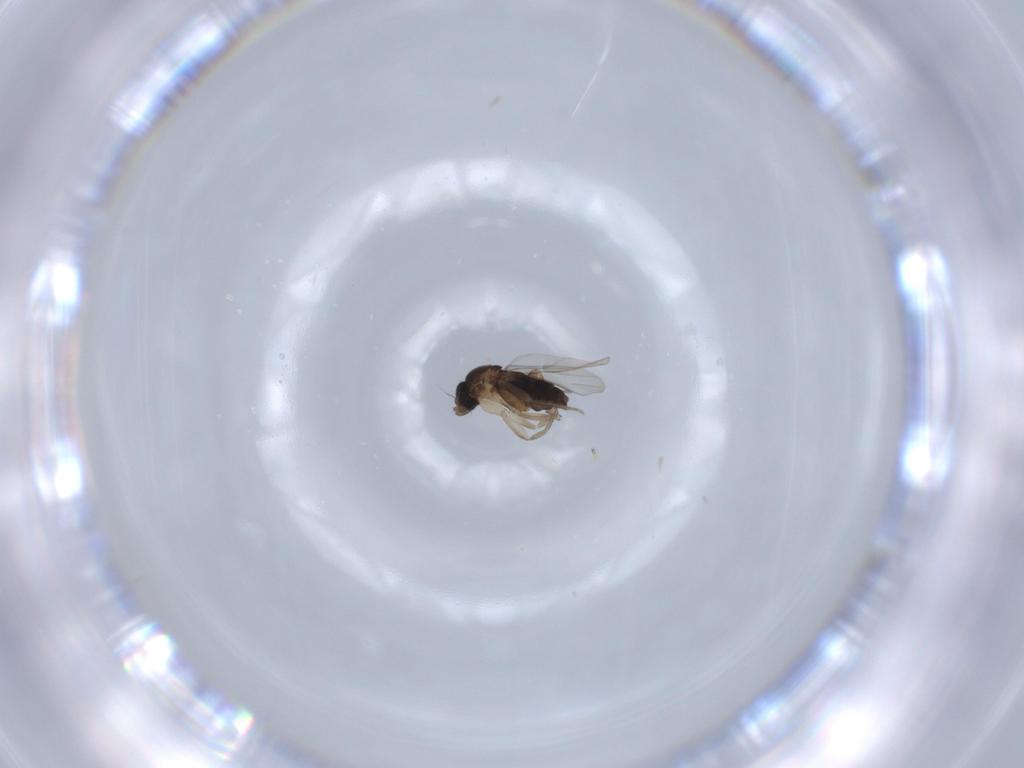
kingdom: Animalia
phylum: Arthropoda
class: Insecta
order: Diptera
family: Phoridae
